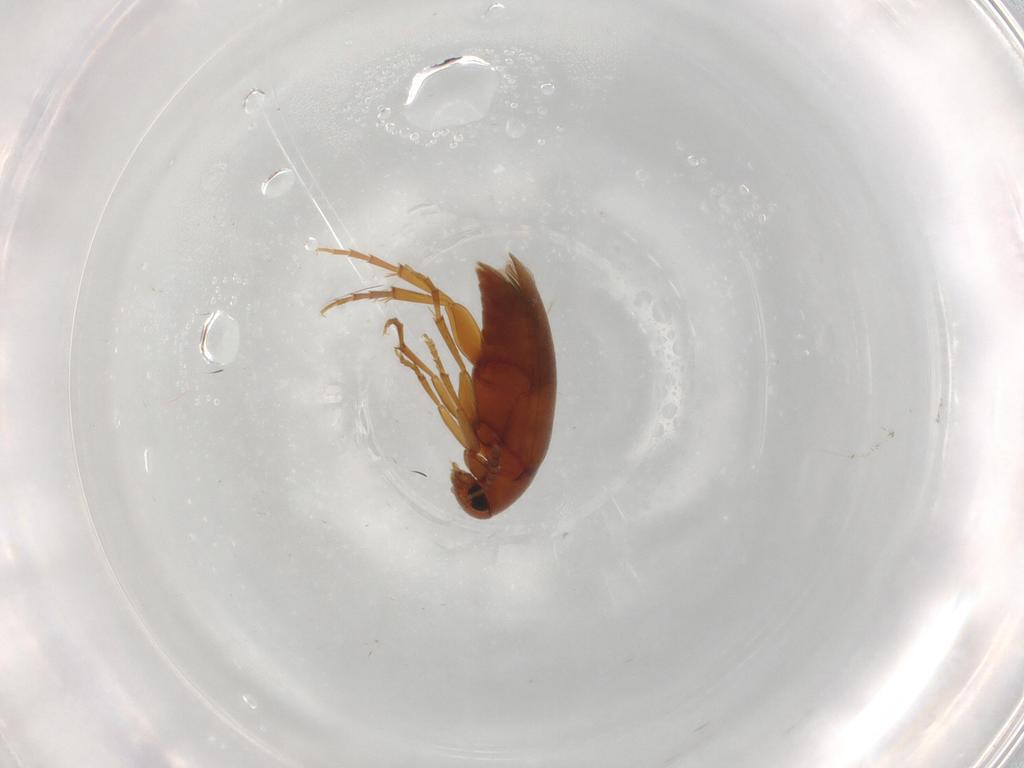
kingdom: Animalia
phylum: Arthropoda
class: Insecta
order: Coleoptera
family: Scraptiidae
